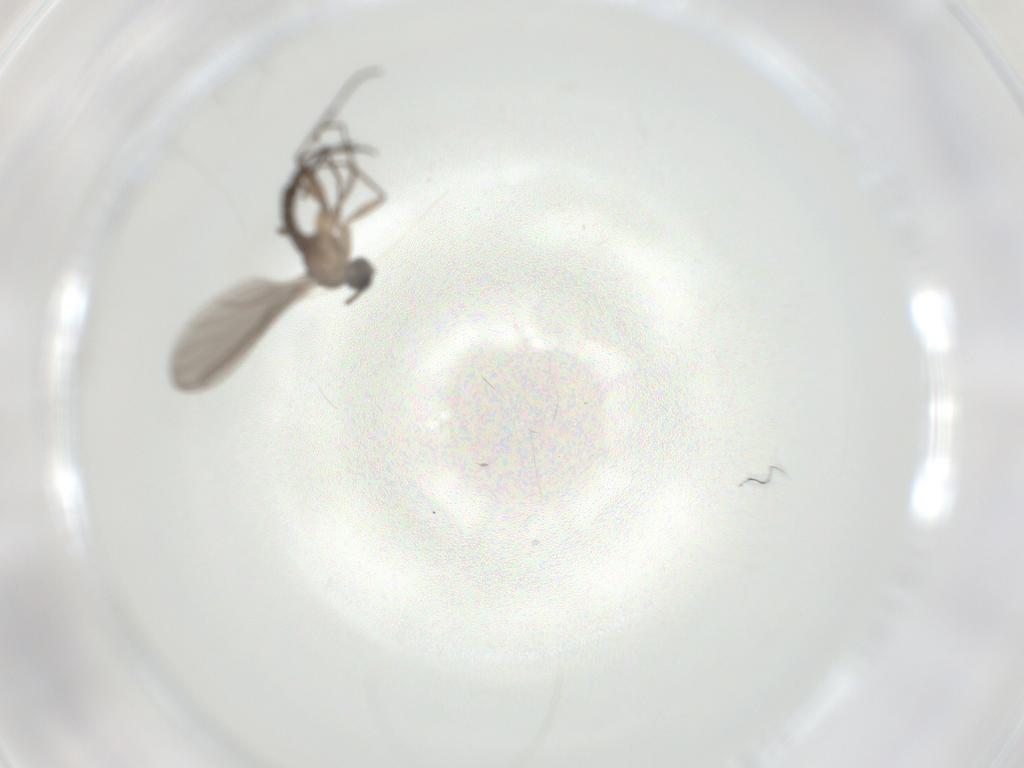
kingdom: Animalia
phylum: Arthropoda
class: Insecta
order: Diptera
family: Sciaridae
